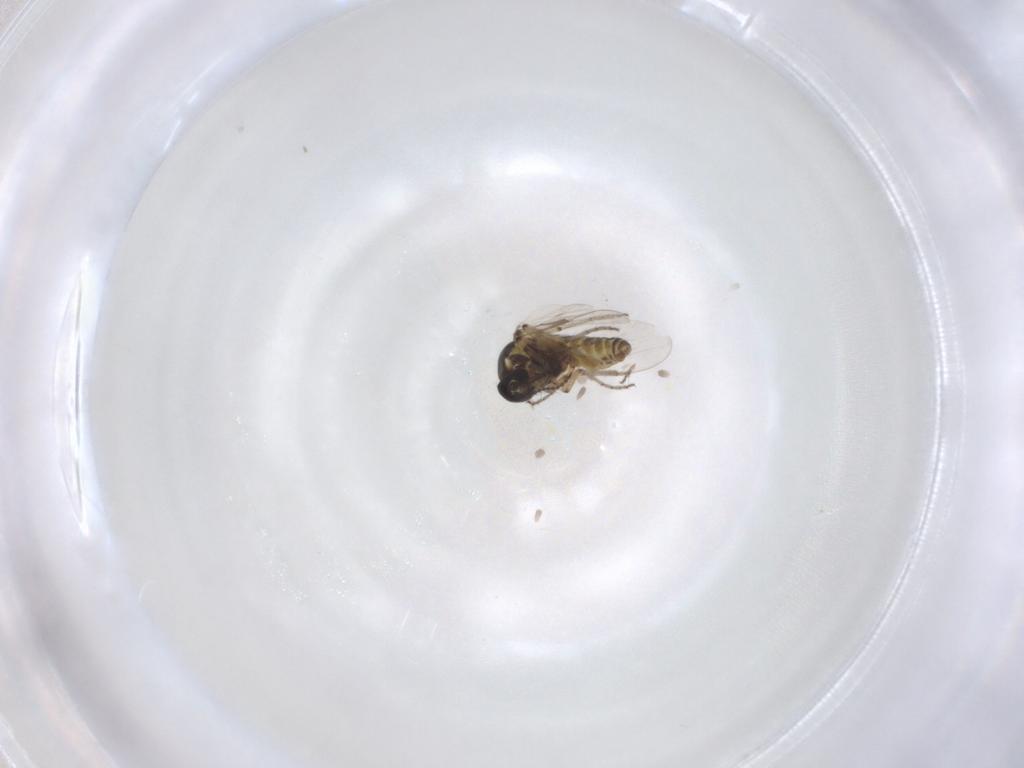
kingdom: Animalia
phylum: Arthropoda
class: Insecta
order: Diptera
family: Ceratopogonidae
